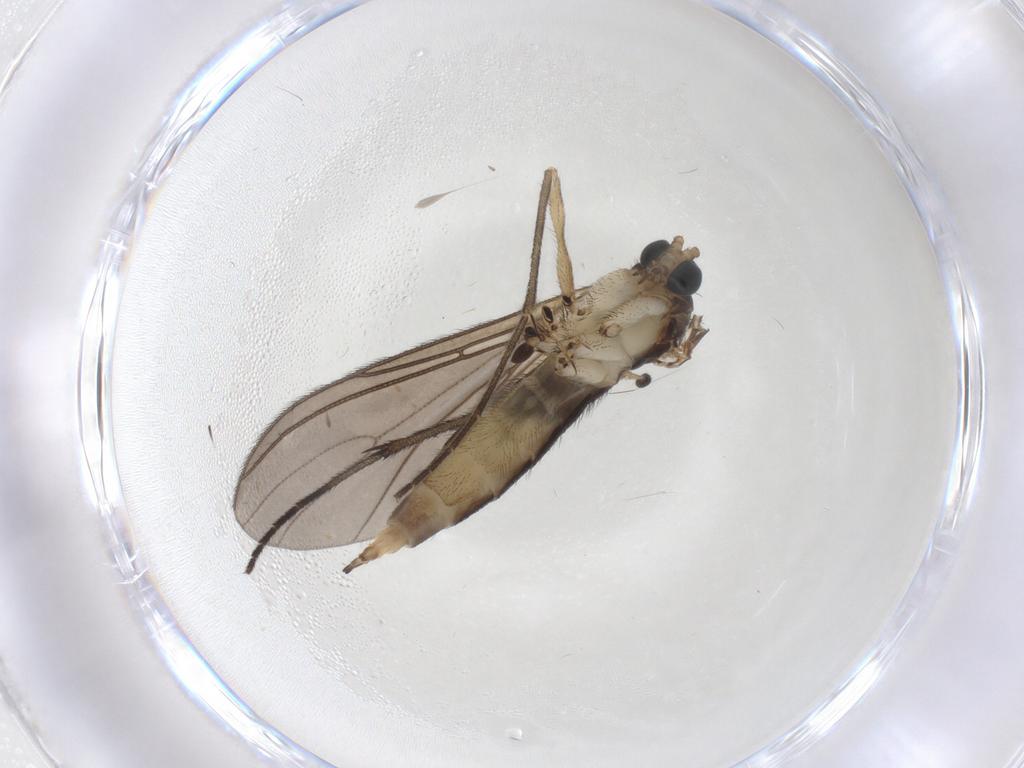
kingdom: Animalia
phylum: Arthropoda
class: Insecta
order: Diptera
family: Sciaridae
